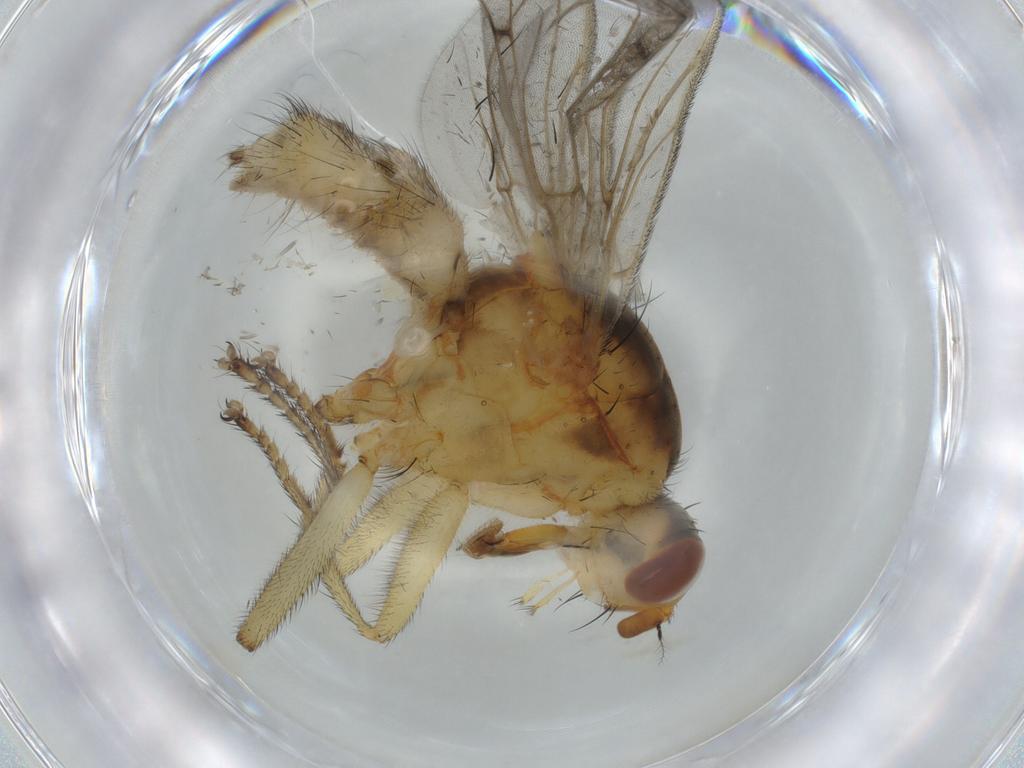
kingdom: Animalia
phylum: Arthropoda
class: Insecta
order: Diptera
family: Scathophagidae
